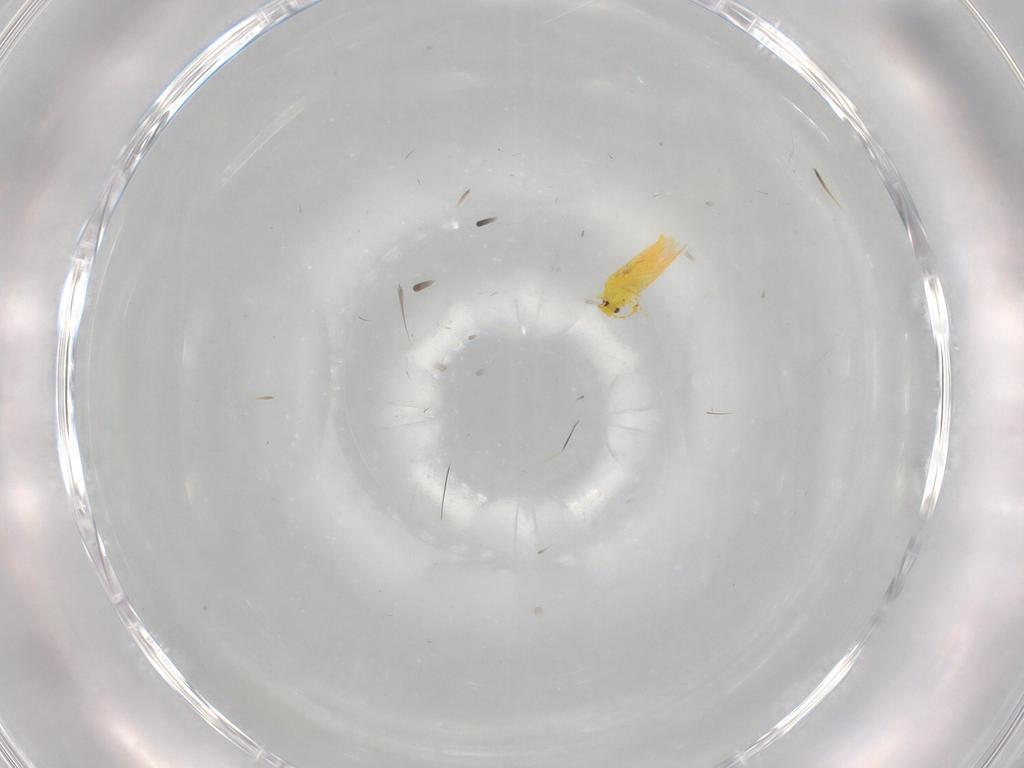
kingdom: Animalia
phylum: Arthropoda
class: Insecta
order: Hemiptera
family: Aleyrodidae
